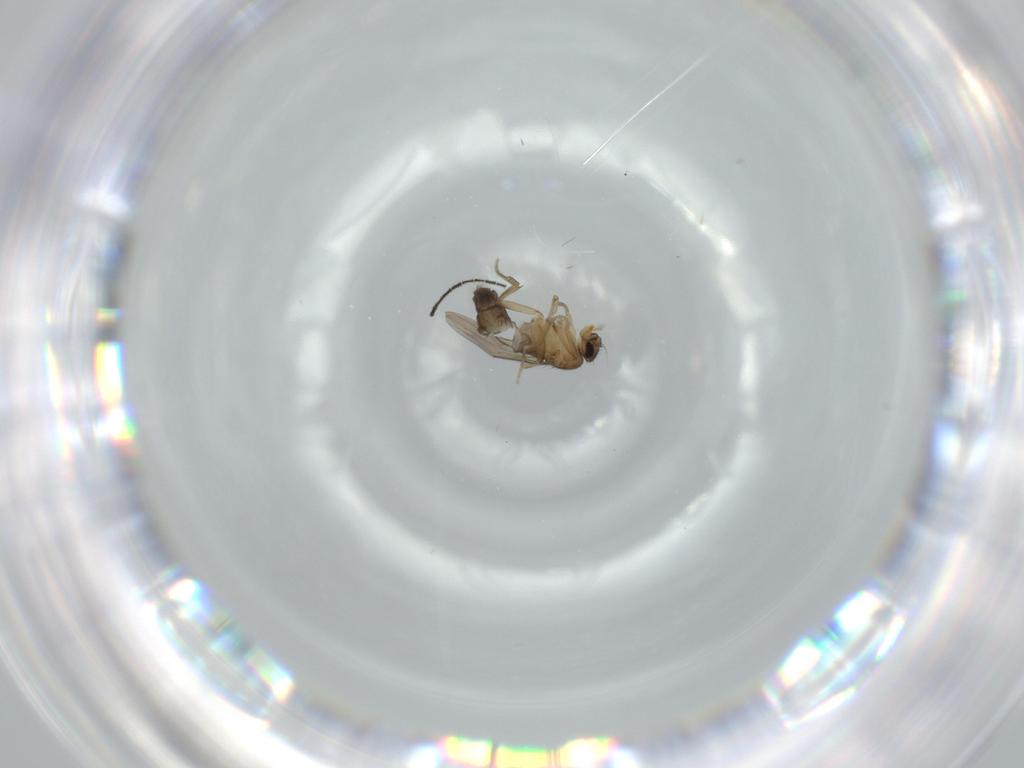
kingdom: Animalia
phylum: Arthropoda
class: Insecta
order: Diptera
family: Phoridae
